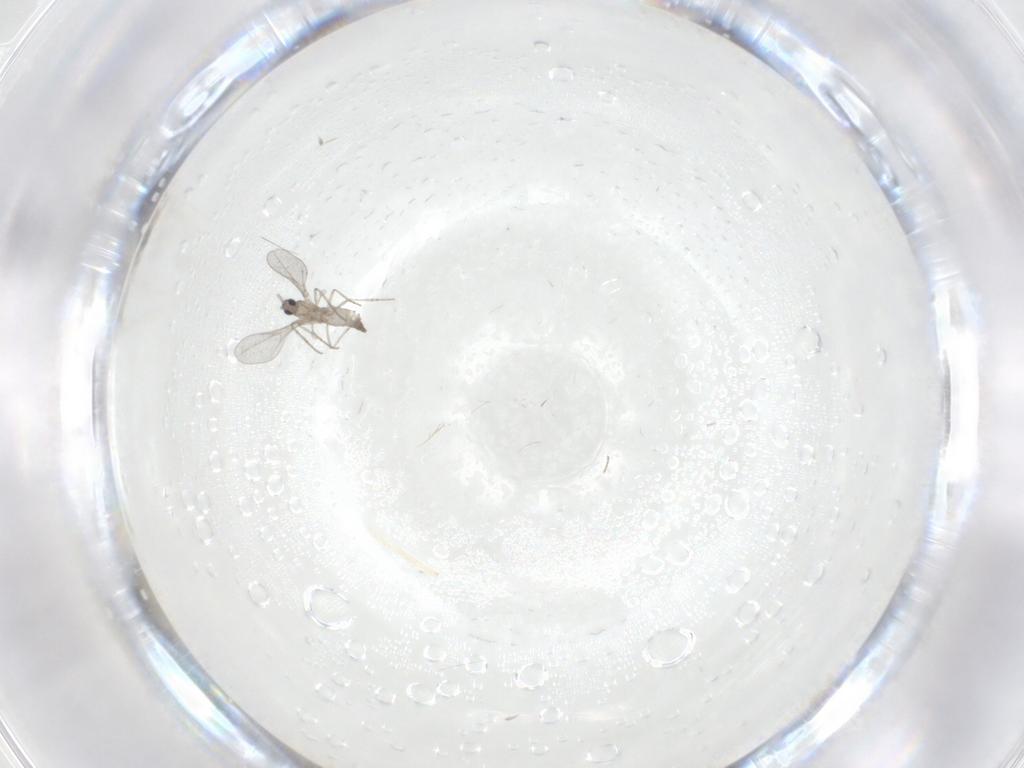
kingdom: Animalia
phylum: Arthropoda
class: Insecta
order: Diptera
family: Cecidomyiidae
